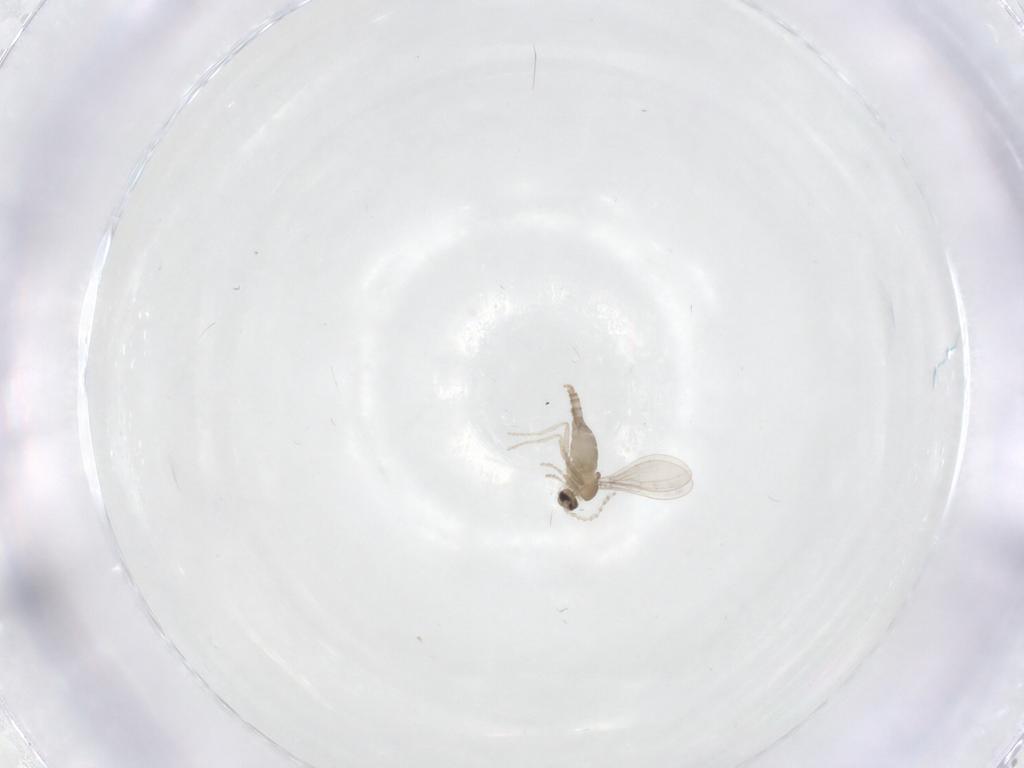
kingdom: Animalia
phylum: Arthropoda
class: Insecta
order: Diptera
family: Cecidomyiidae
